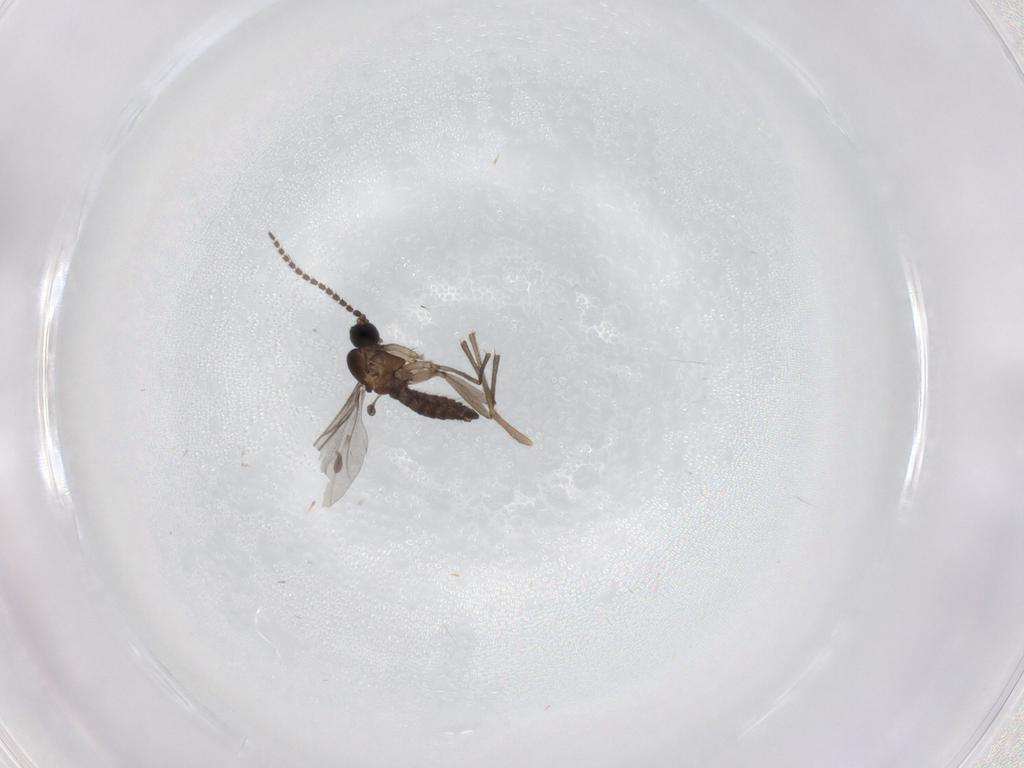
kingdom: Animalia
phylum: Arthropoda
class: Insecta
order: Diptera
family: Chironomidae
